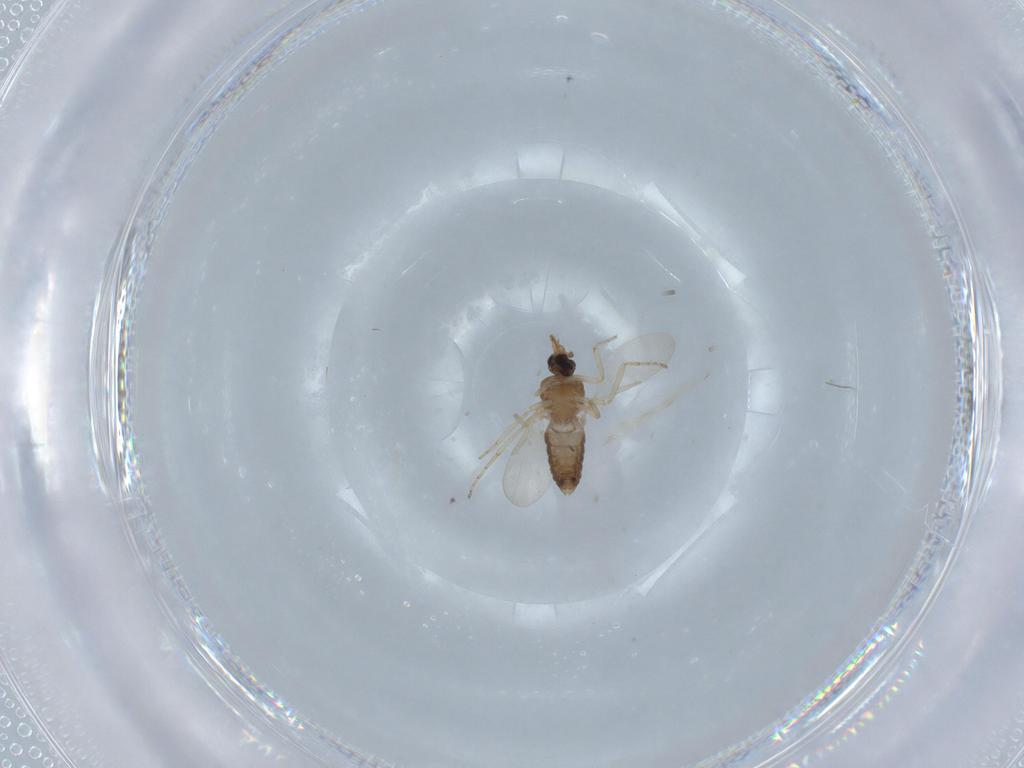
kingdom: Animalia
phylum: Arthropoda
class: Insecta
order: Diptera
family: Ceratopogonidae
